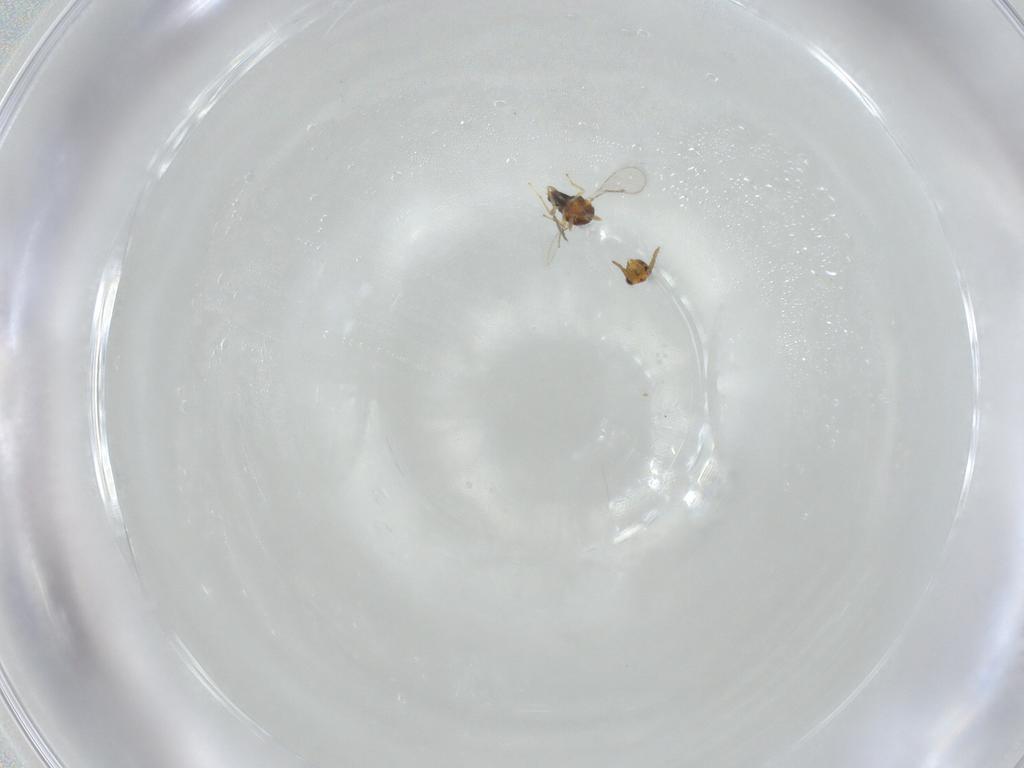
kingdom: Animalia
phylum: Arthropoda
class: Insecta
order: Hymenoptera
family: Aphelinidae
